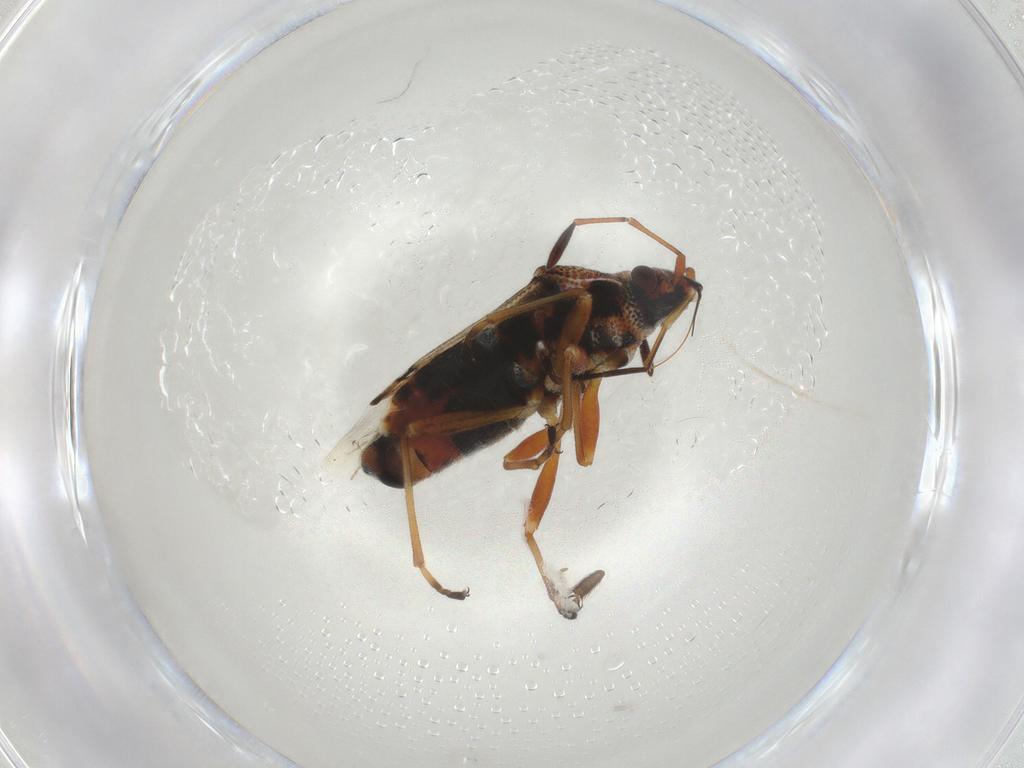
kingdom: Animalia
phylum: Arthropoda
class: Insecta
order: Hemiptera
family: Lygaeidae
